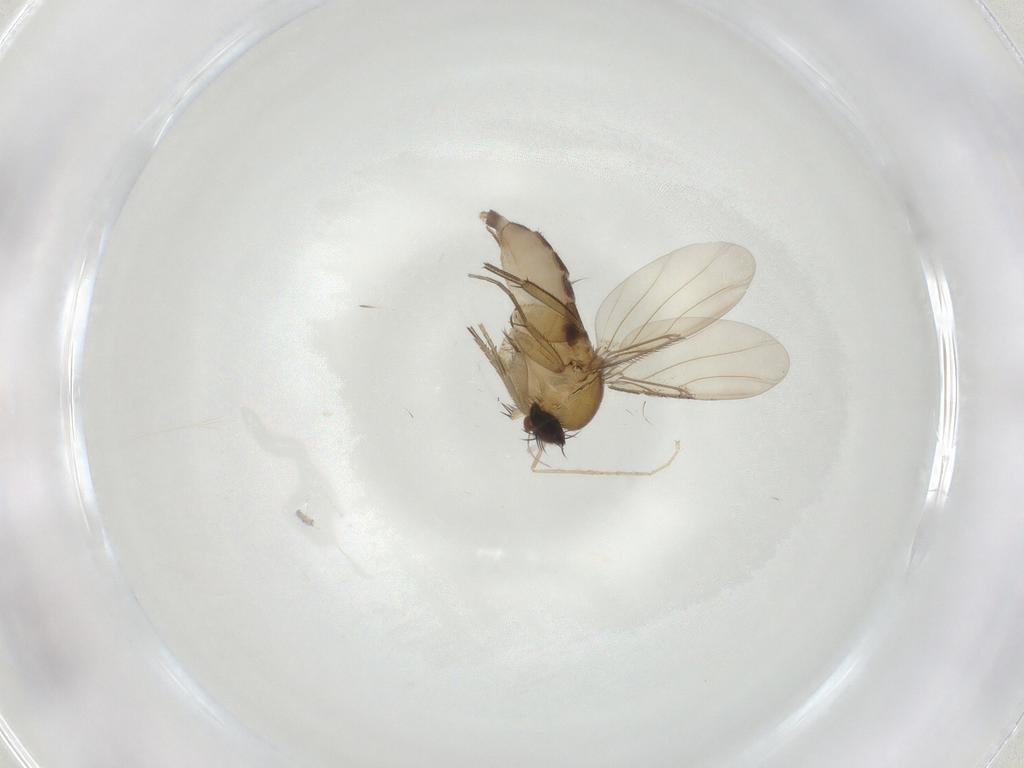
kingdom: Animalia
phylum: Arthropoda
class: Insecta
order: Diptera
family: Phoridae
